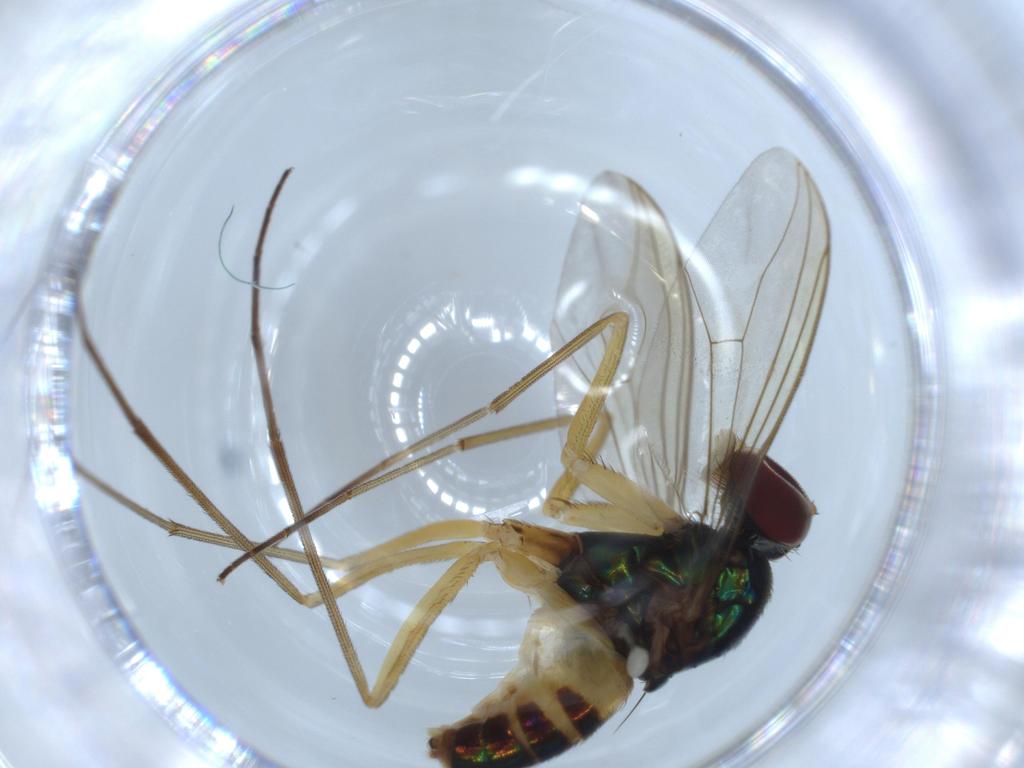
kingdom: Animalia
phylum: Arthropoda
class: Insecta
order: Diptera
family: Dolichopodidae
